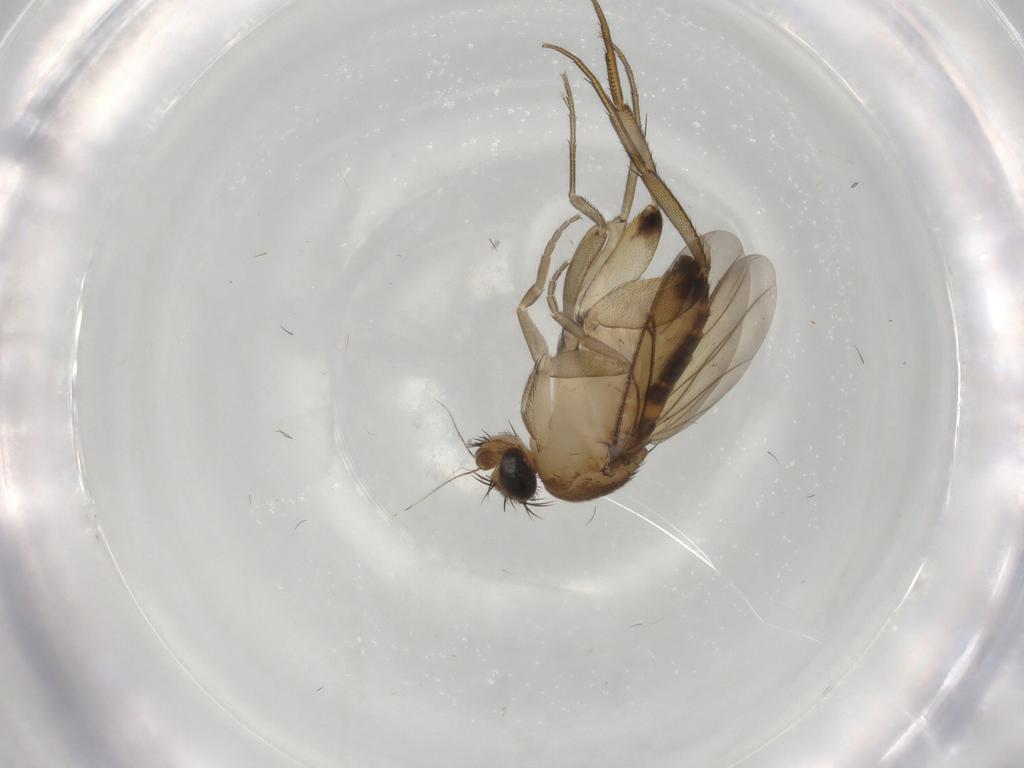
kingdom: Animalia
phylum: Arthropoda
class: Insecta
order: Diptera
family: Phoridae
